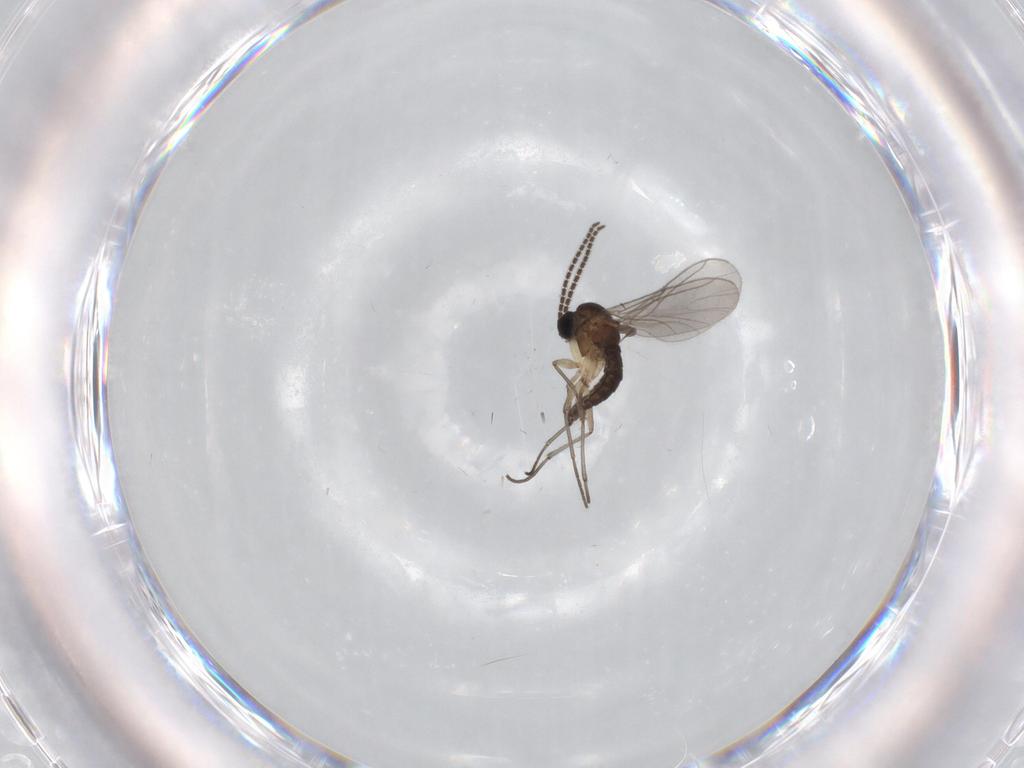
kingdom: Animalia
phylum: Arthropoda
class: Insecta
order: Diptera
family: Sciaridae
